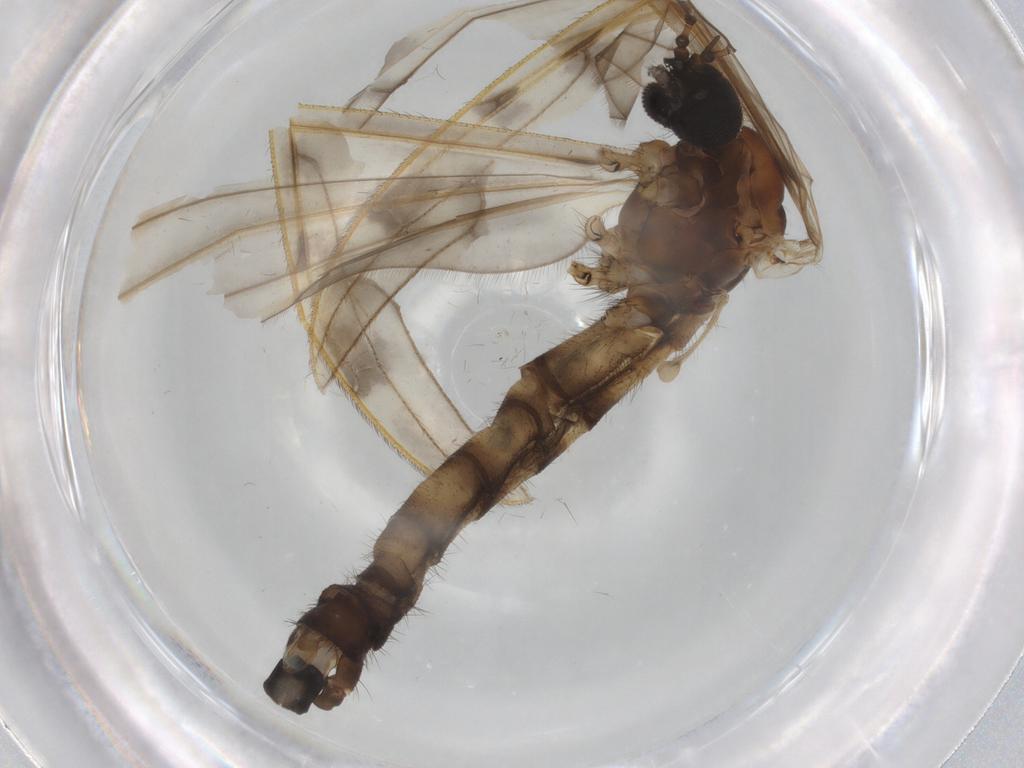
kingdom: Animalia
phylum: Arthropoda
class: Insecta
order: Diptera
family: Sciaridae
